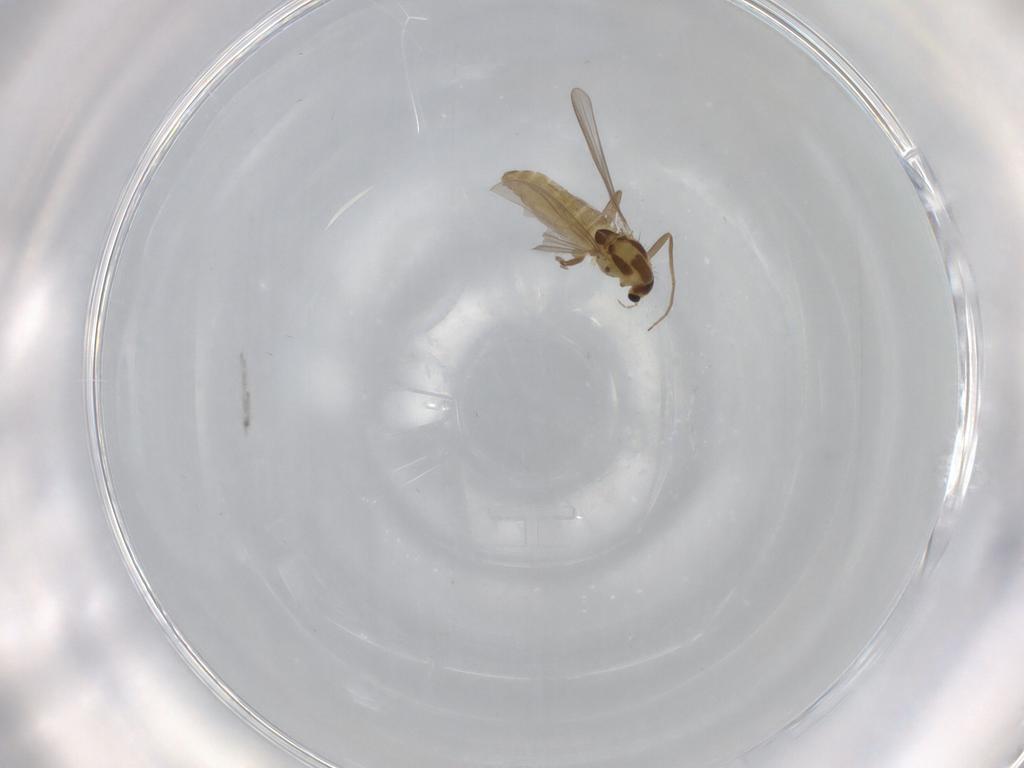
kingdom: Animalia
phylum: Arthropoda
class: Insecta
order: Diptera
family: Chironomidae
